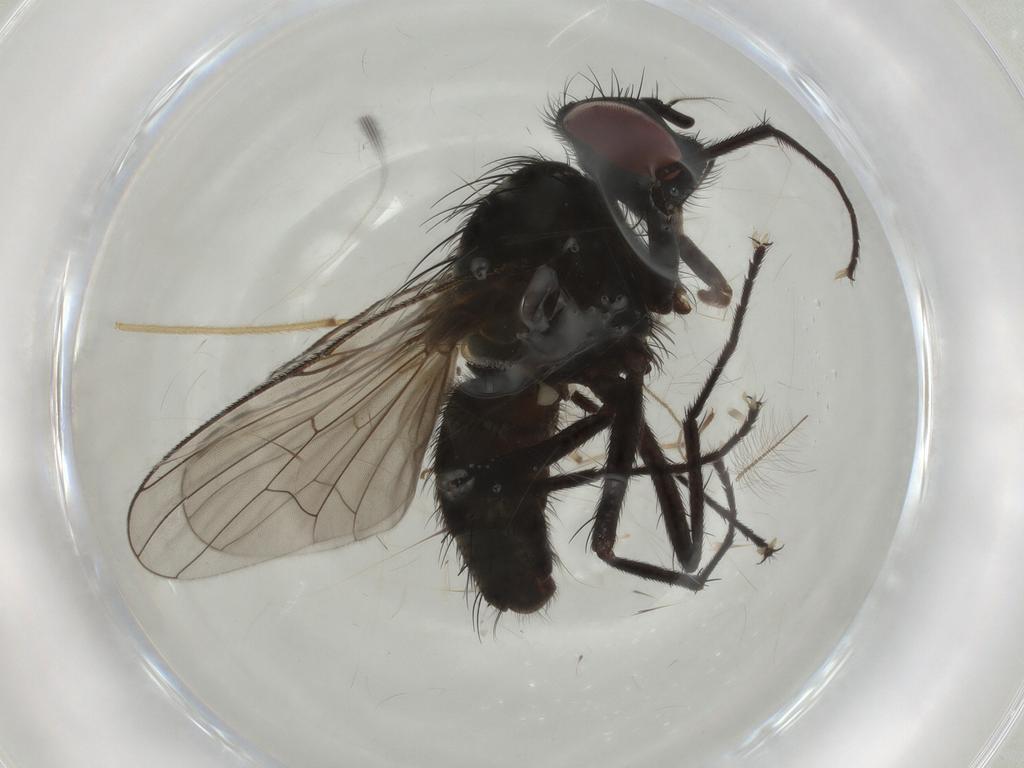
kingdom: Animalia
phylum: Arthropoda
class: Insecta
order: Diptera
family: Muscidae
